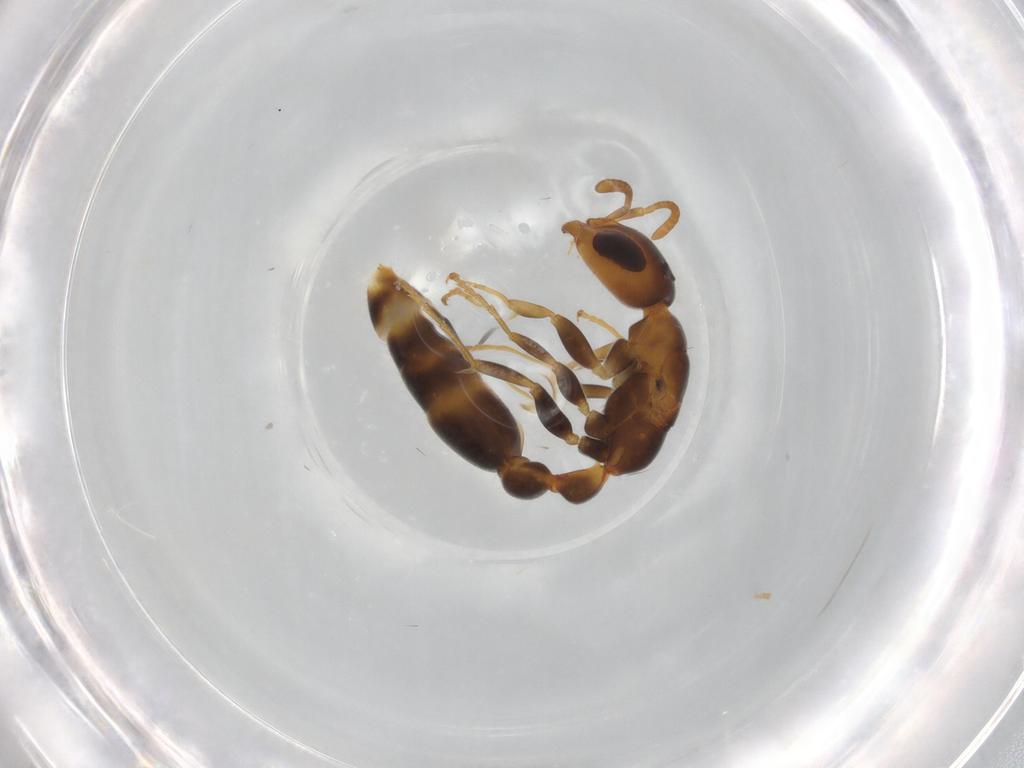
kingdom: Animalia
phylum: Arthropoda
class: Insecta
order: Hymenoptera
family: Formicidae
